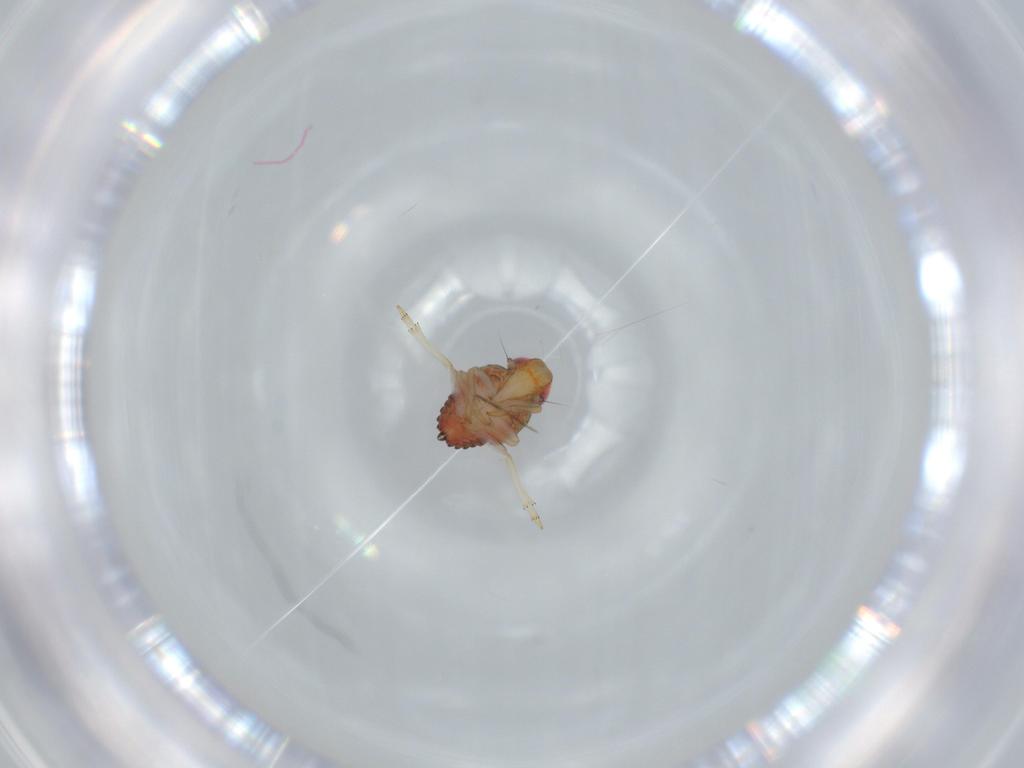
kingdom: Animalia
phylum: Arthropoda
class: Insecta
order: Hemiptera
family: Issidae
